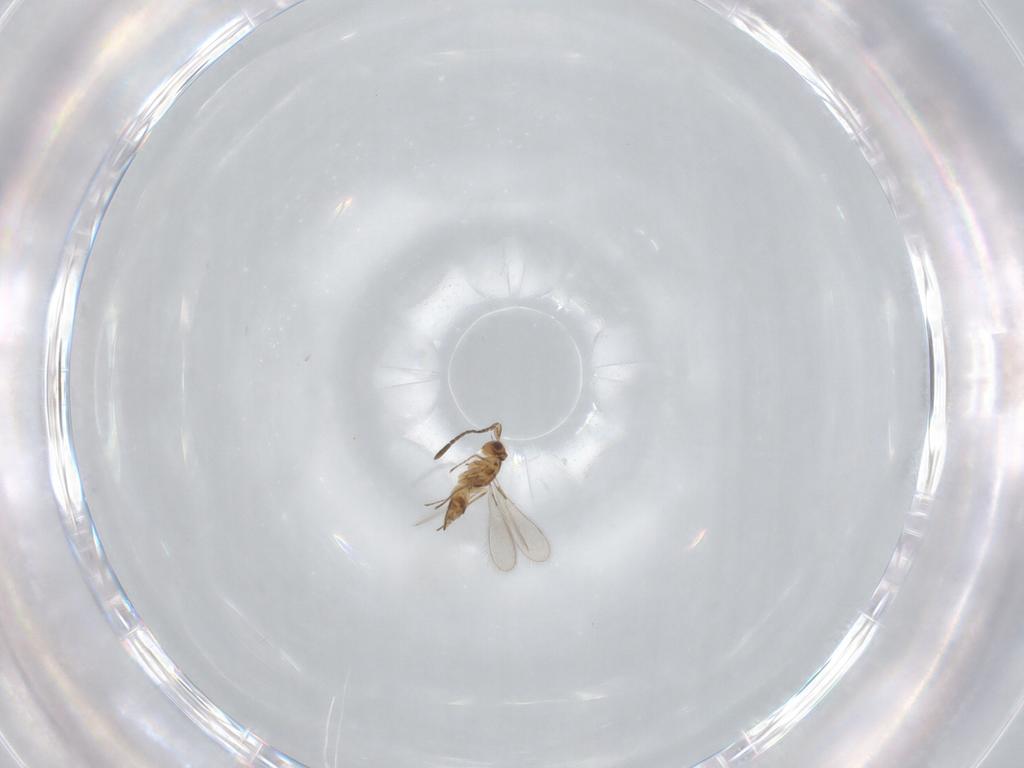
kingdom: Animalia
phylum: Arthropoda
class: Insecta
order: Hymenoptera
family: Mymaridae
